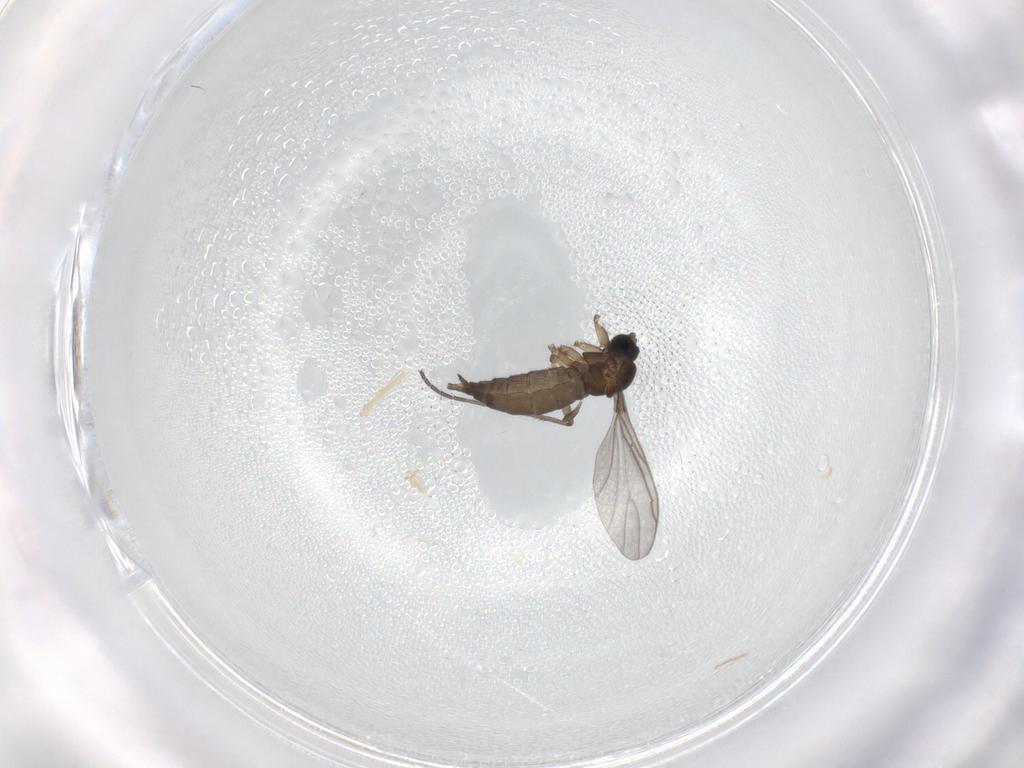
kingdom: Animalia
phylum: Arthropoda
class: Insecta
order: Diptera
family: Sciaridae
